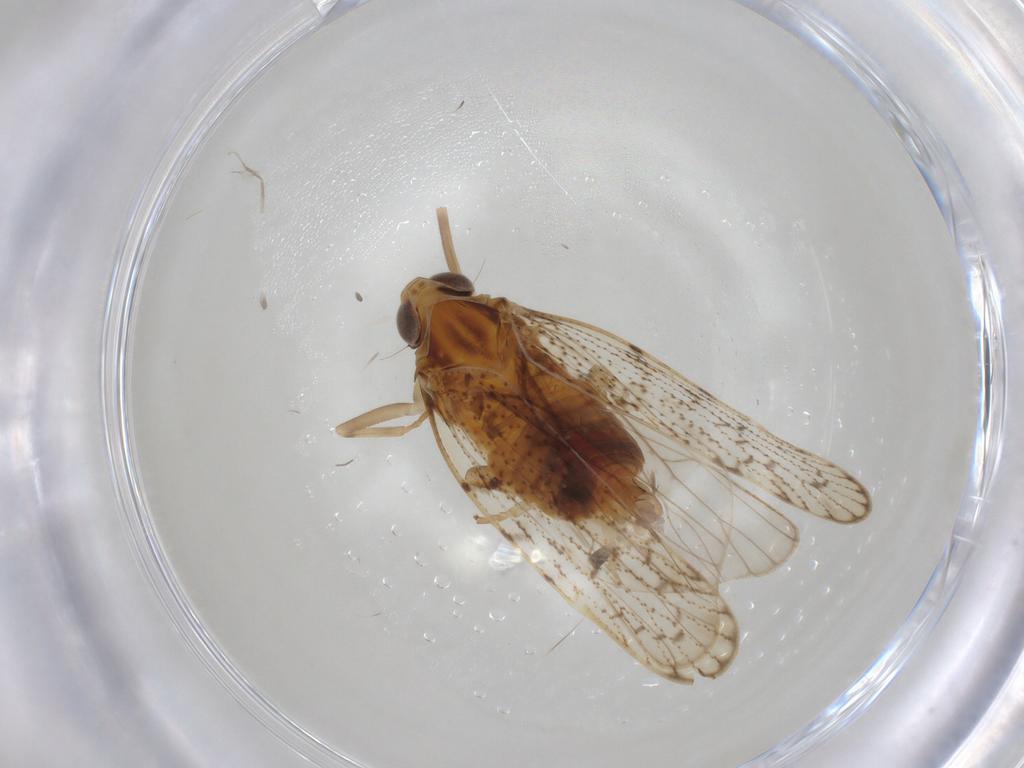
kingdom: Animalia
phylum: Arthropoda
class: Insecta
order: Diptera
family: Cecidomyiidae
